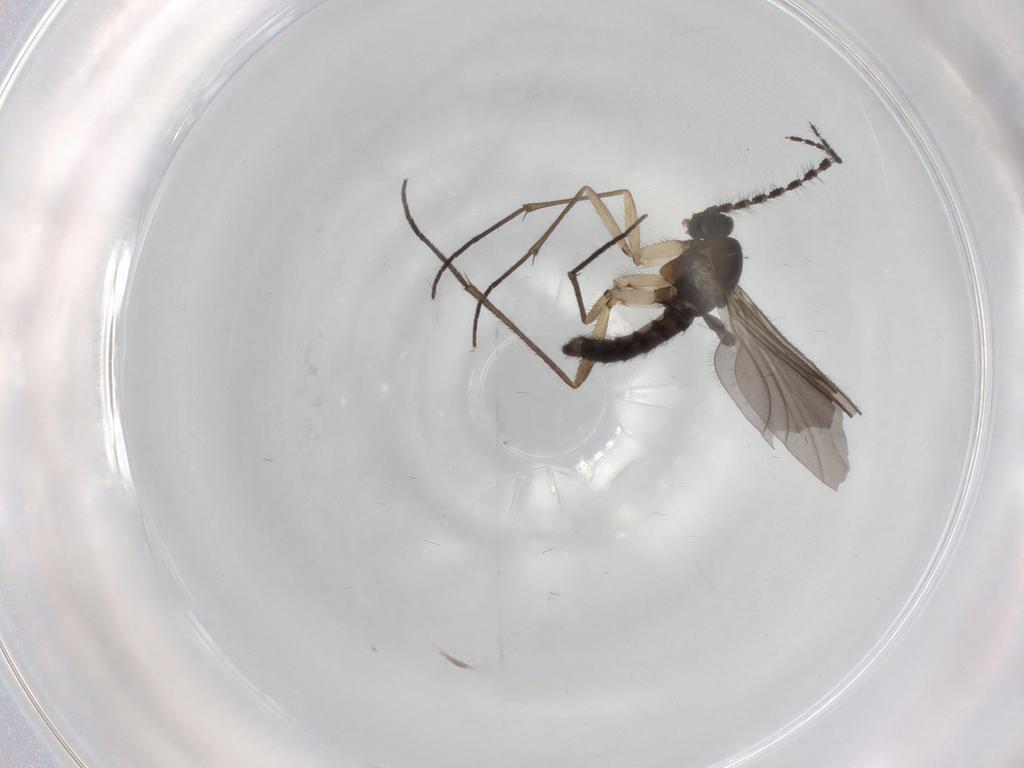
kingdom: Animalia
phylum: Arthropoda
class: Insecta
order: Diptera
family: Sciaridae
